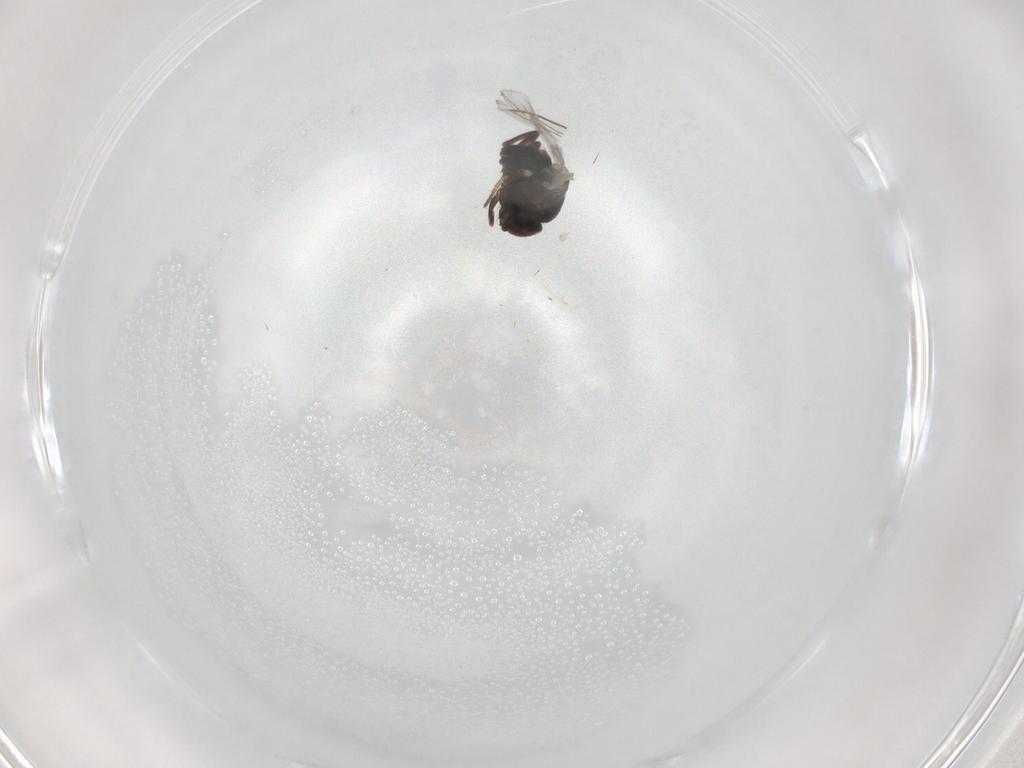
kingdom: Animalia
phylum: Arthropoda
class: Insecta
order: Diptera
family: Dolichopodidae
